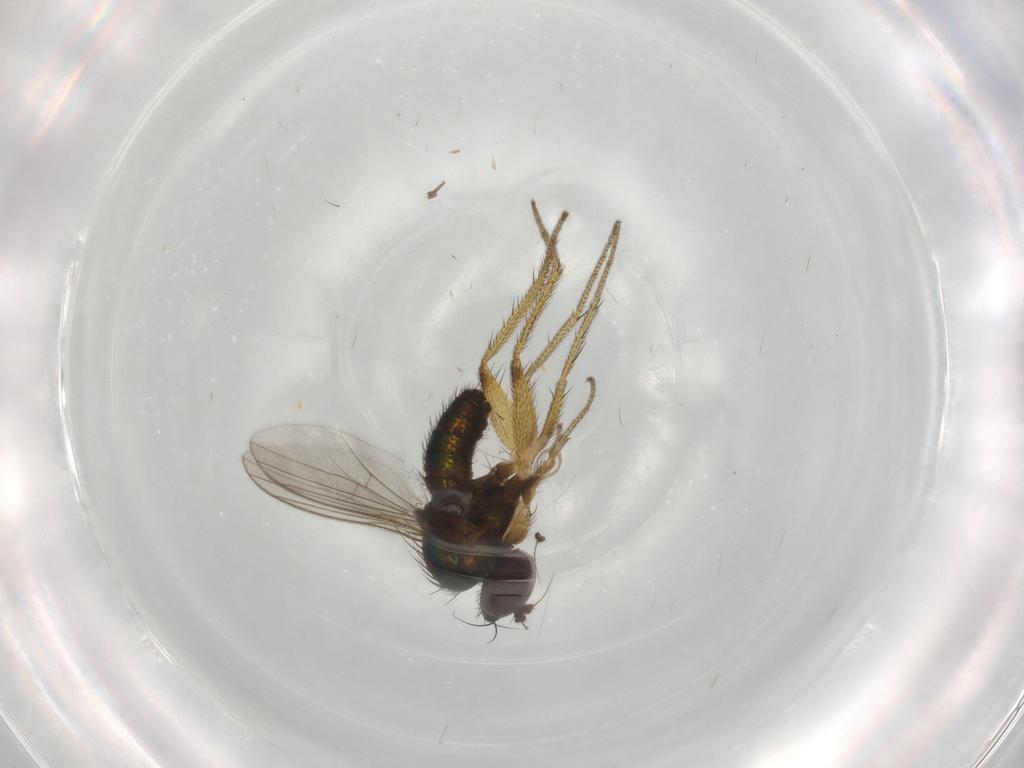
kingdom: Animalia
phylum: Arthropoda
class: Insecta
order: Diptera
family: Dolichopodidae
